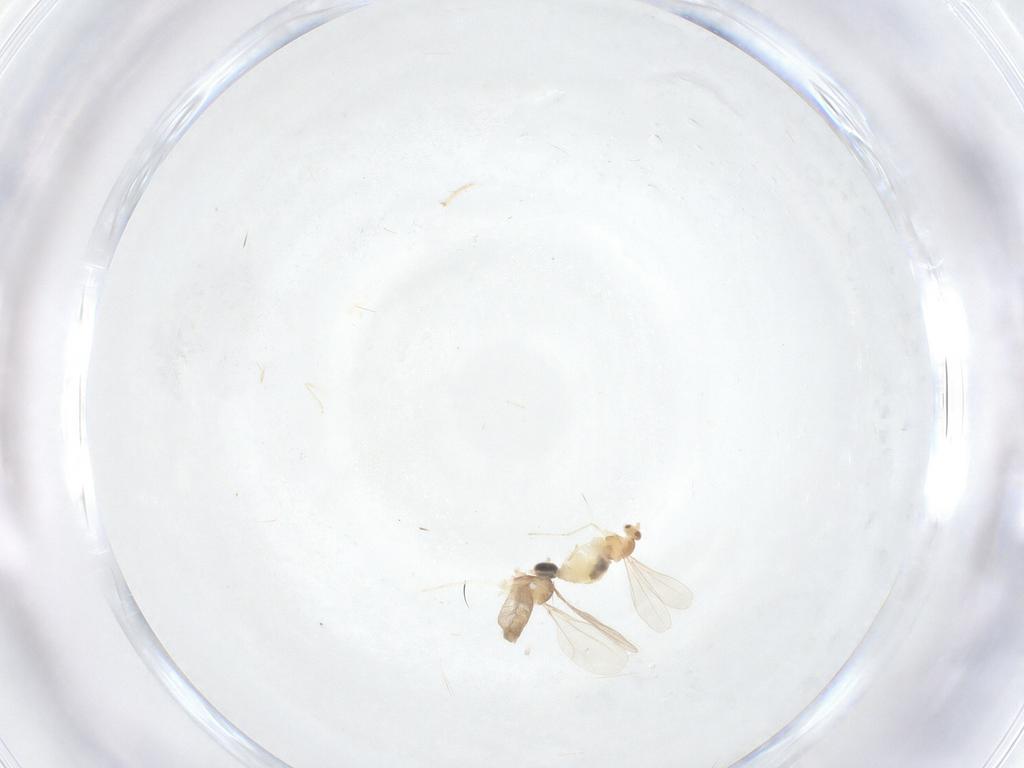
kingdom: Animalia
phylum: Arthropoda
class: Insecta
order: Diptera
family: Cecidomyiidae
